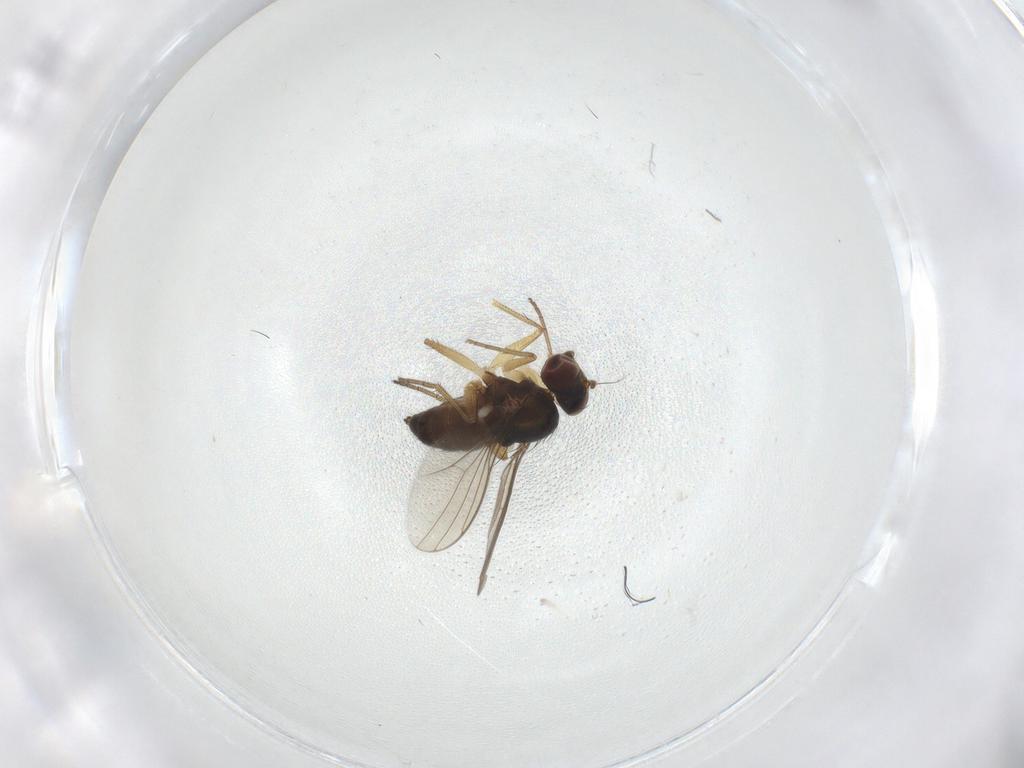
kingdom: Animalia
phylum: Arthropoda
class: Insecta
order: Diptera
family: Dolichopodidae
